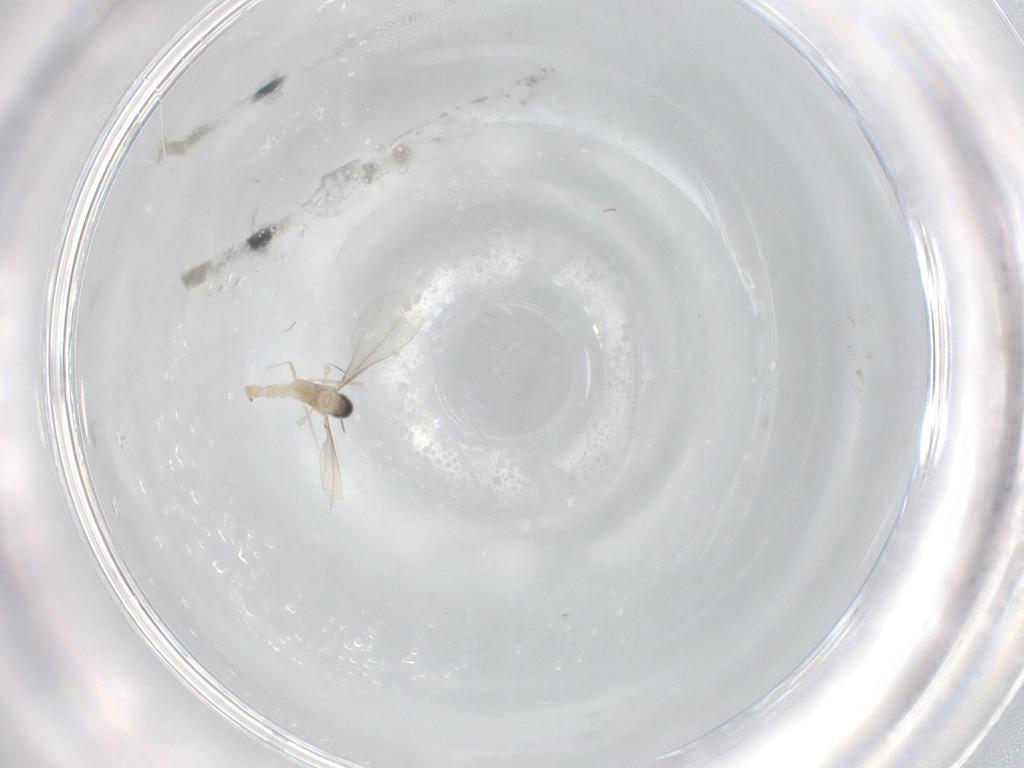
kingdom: Animalia
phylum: Arthropoda
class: Insecta
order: Diptera
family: Cecidomyiidae
